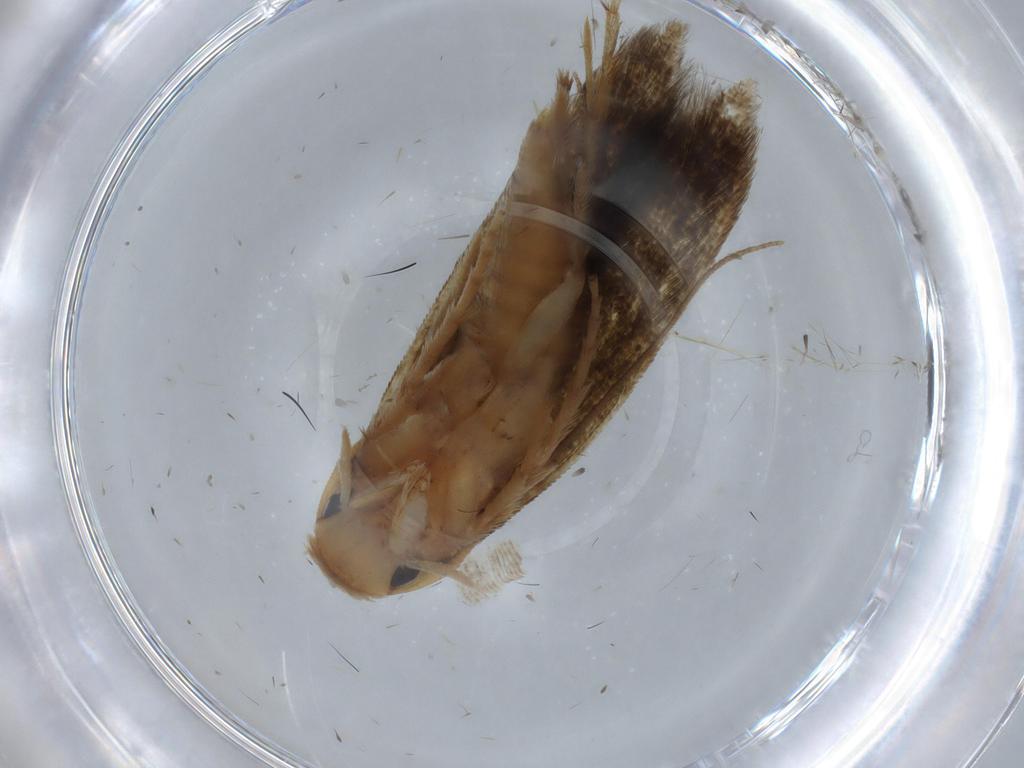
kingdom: Animalia
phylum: Arthropoda
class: Insecta
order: Lepidoptera
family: Tineidae
